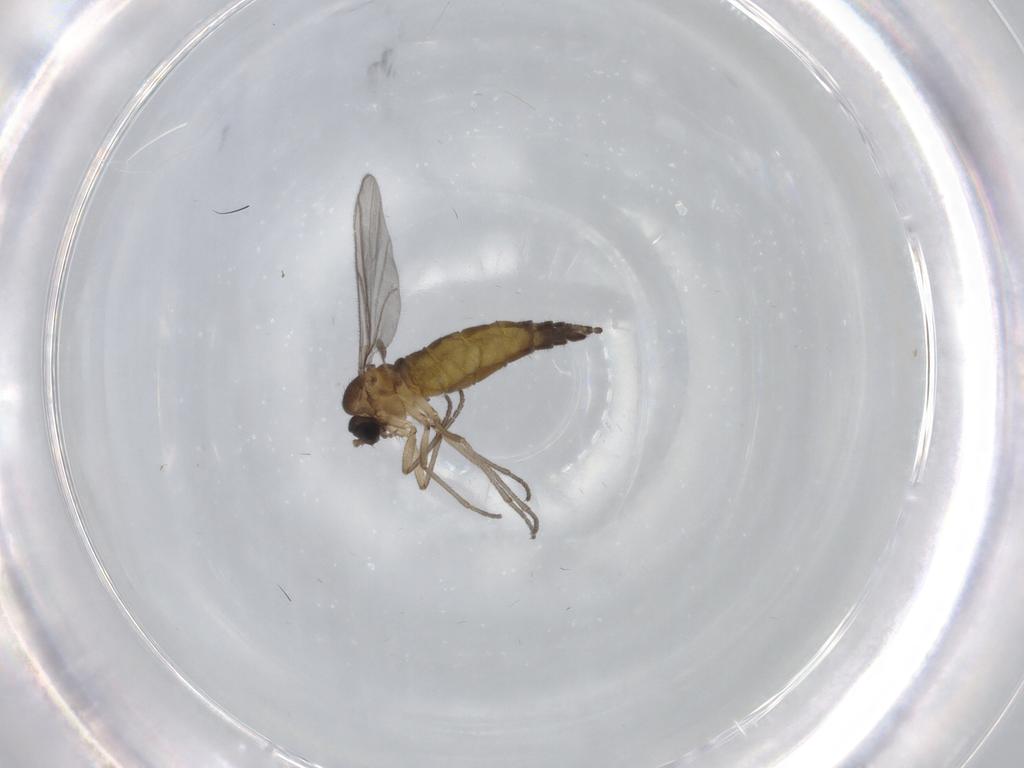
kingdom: Animalia
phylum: Arthropoda
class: Insecta
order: Diptera
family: Sciaridae
